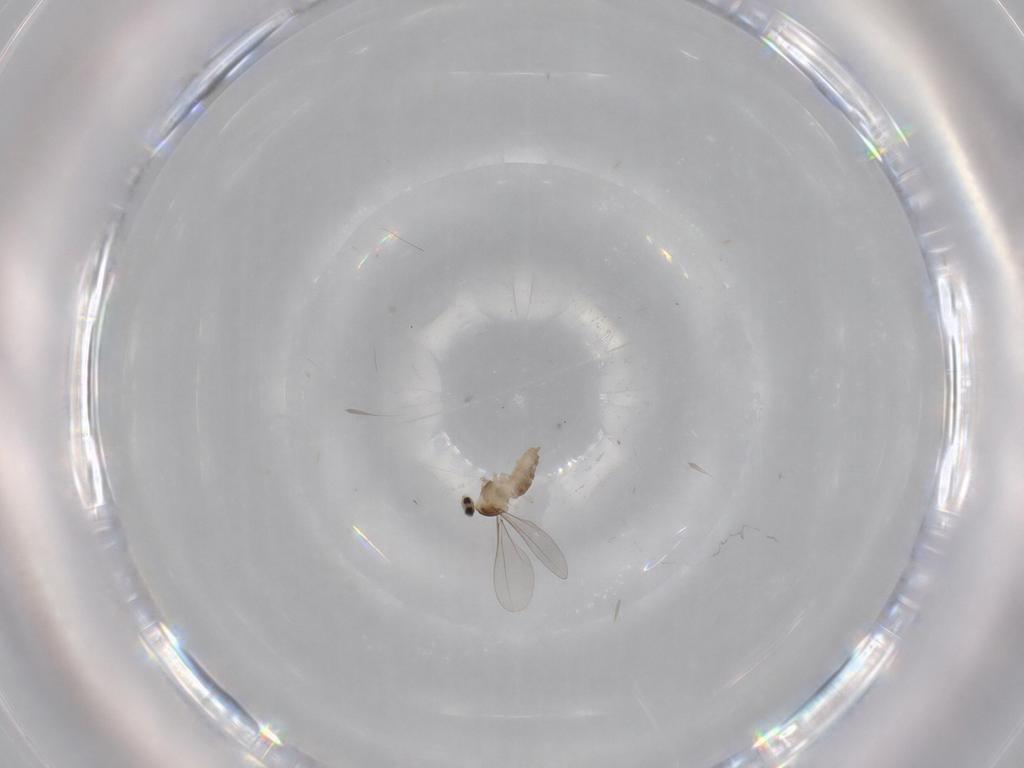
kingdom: Animalia
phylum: Arthropoda
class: Insecta
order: Diptera
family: Cecidomyiidae
